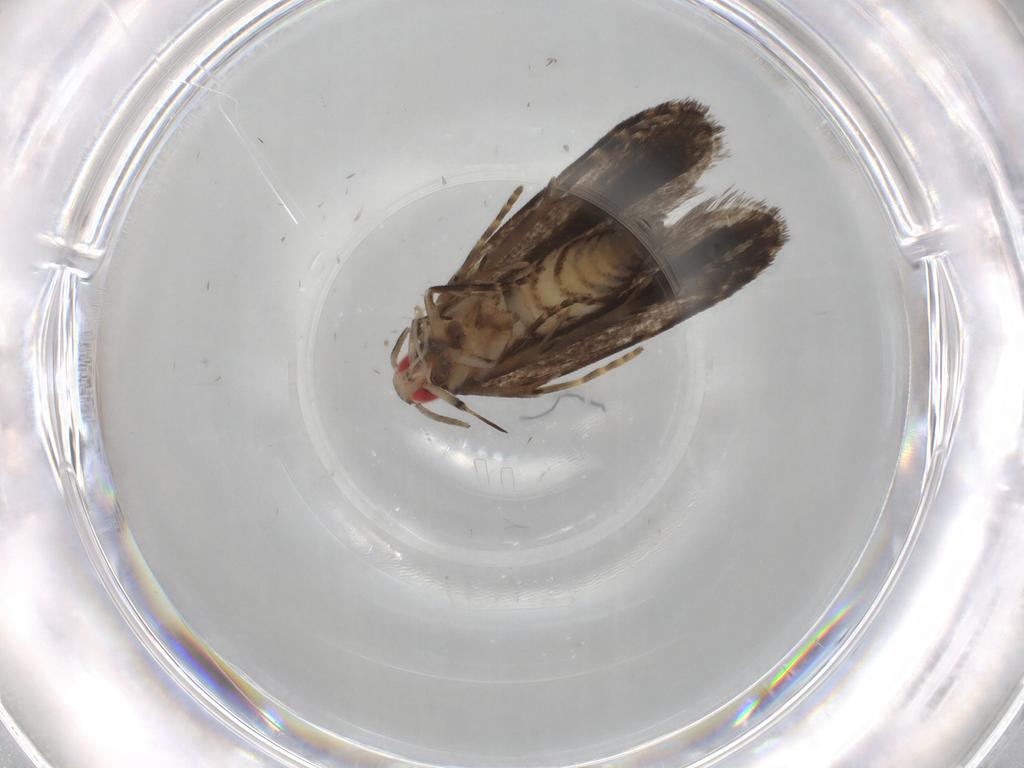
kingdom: Animalia
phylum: Arthropoda
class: Insecta
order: Lepidoptera
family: Gelechiidae
